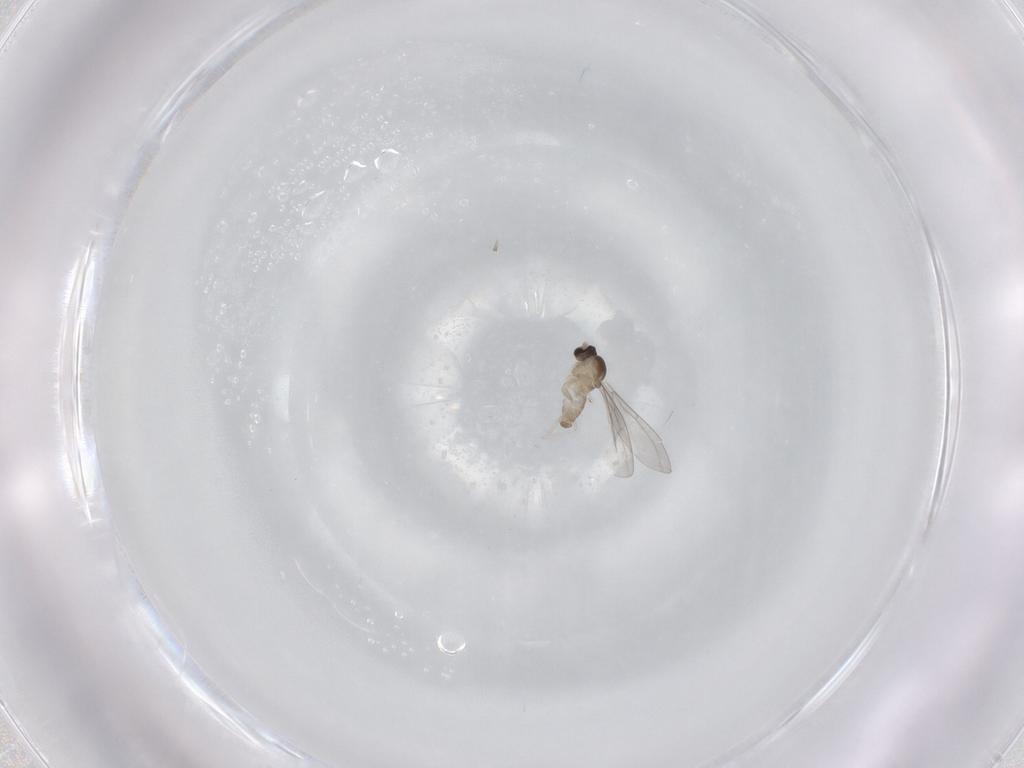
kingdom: Animalia
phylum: Arthropoda
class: Insecta
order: Diptera
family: Cecidomyiidae
